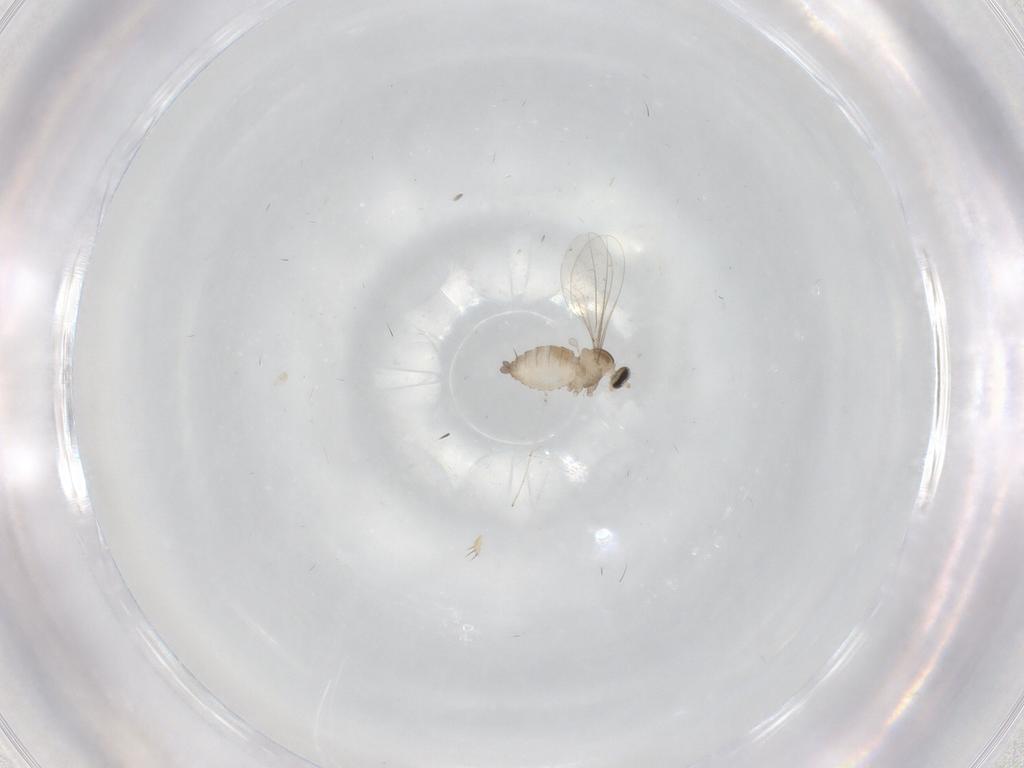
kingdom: Animalia
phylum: Arthropoda
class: Insecta
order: Diptera
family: Cecidomyiidae
